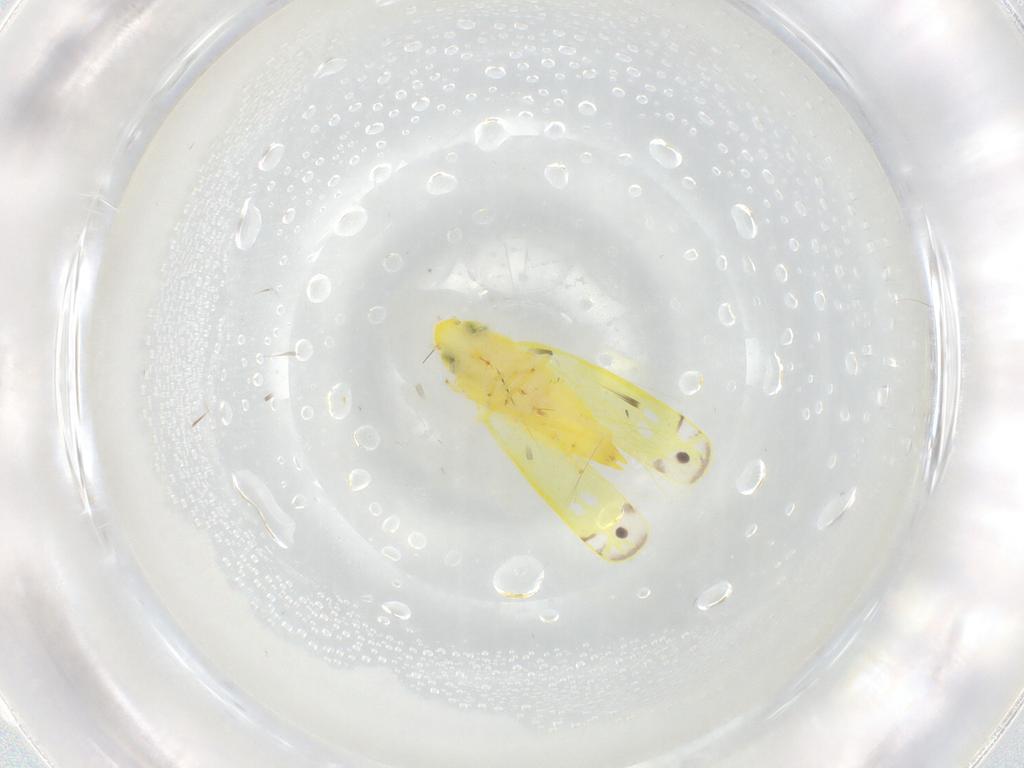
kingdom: Animalia
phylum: Arthropoda
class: Insecta
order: Hemiptera
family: Cicadellidae
